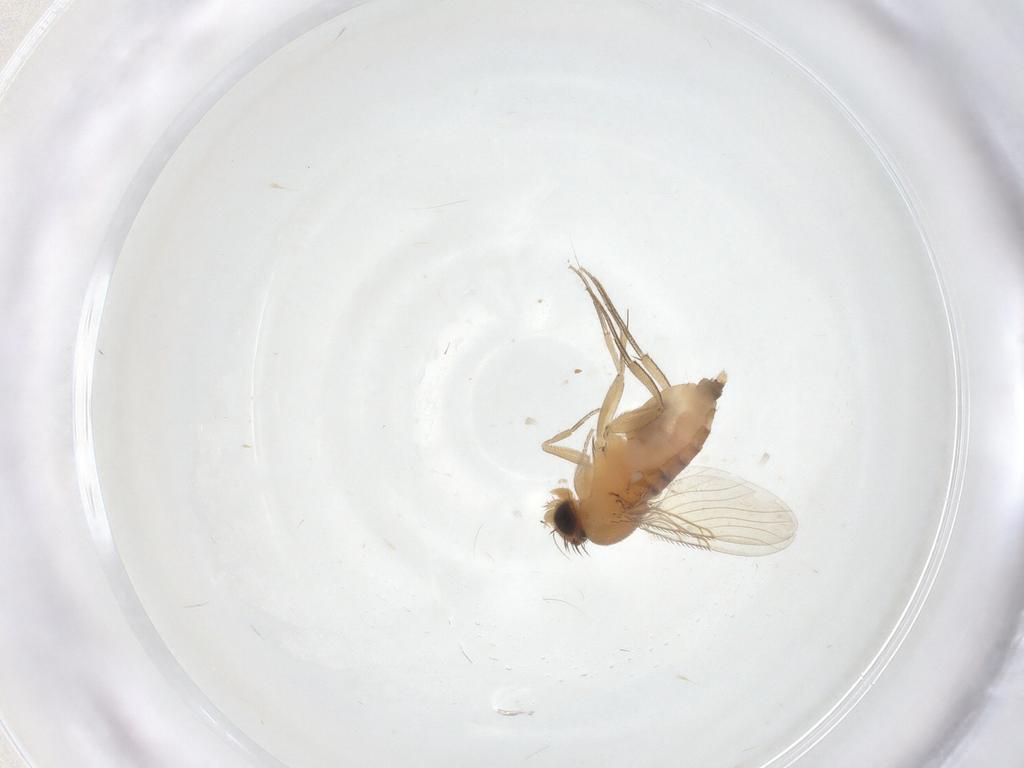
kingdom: Animalia
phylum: Arthropoda
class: Insecta
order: Diptera
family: Phoridae
